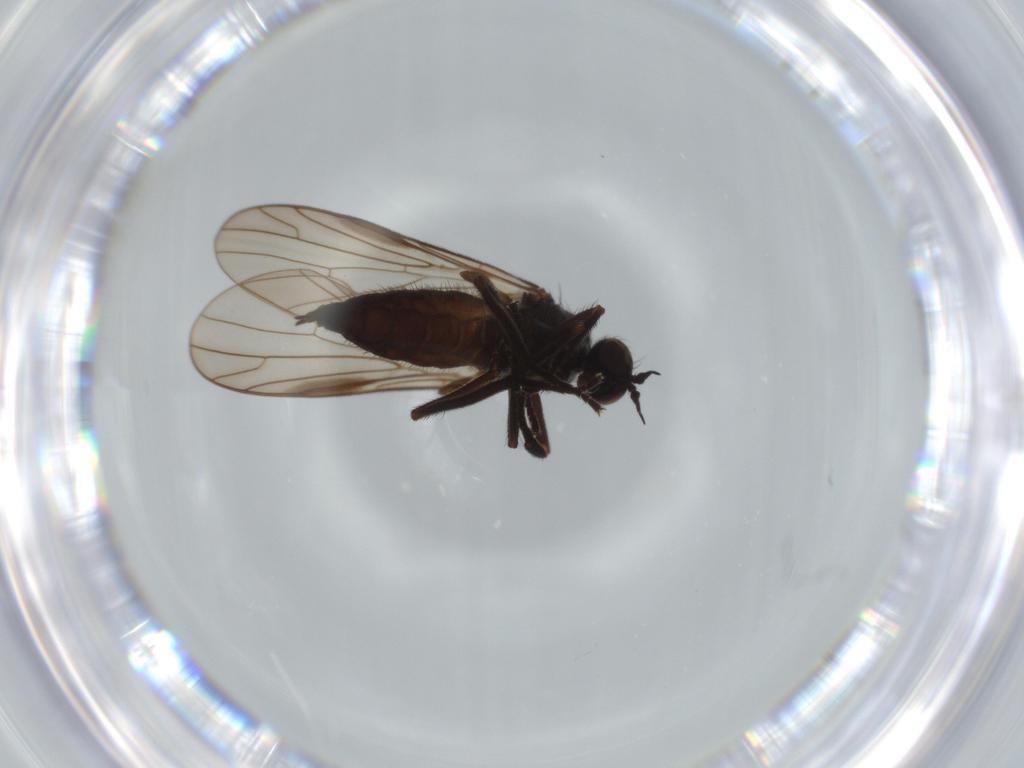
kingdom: Animalia
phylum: Arthropoda
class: Insecta
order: Diptera
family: Empididae
